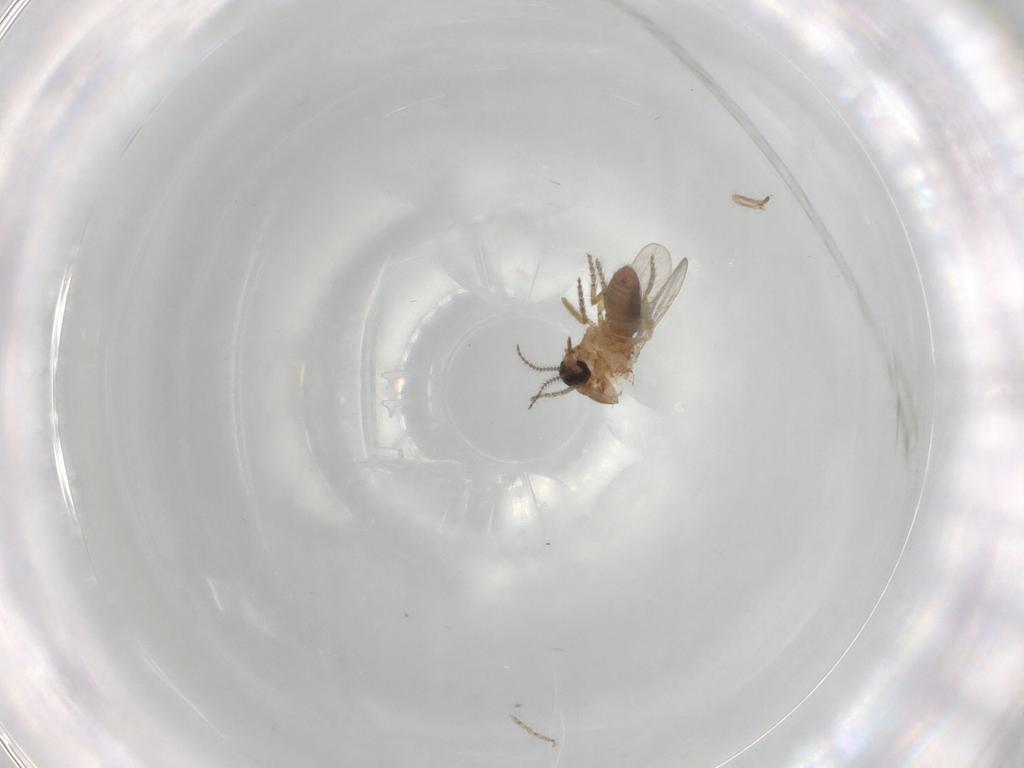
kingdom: Animalia
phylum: Arthropoda
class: Insecta
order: Diptera
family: Ceratopogonidae
